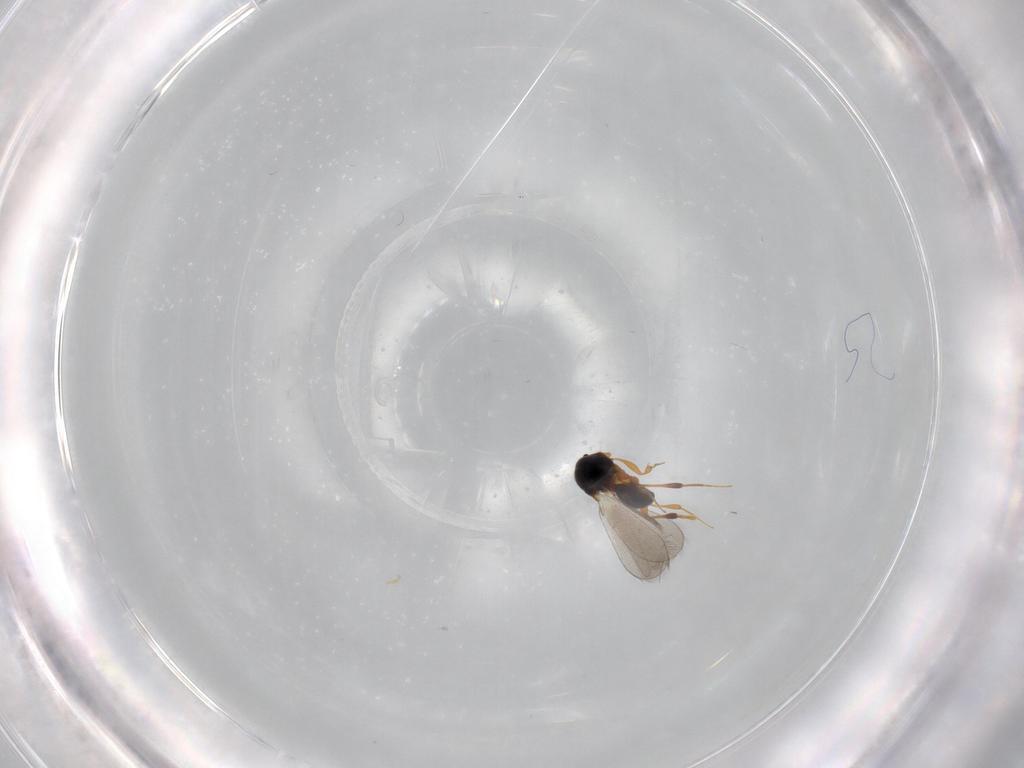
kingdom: Animalia
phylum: Arthropoda
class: Insecta
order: Hymenoptera
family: Platygastridae
